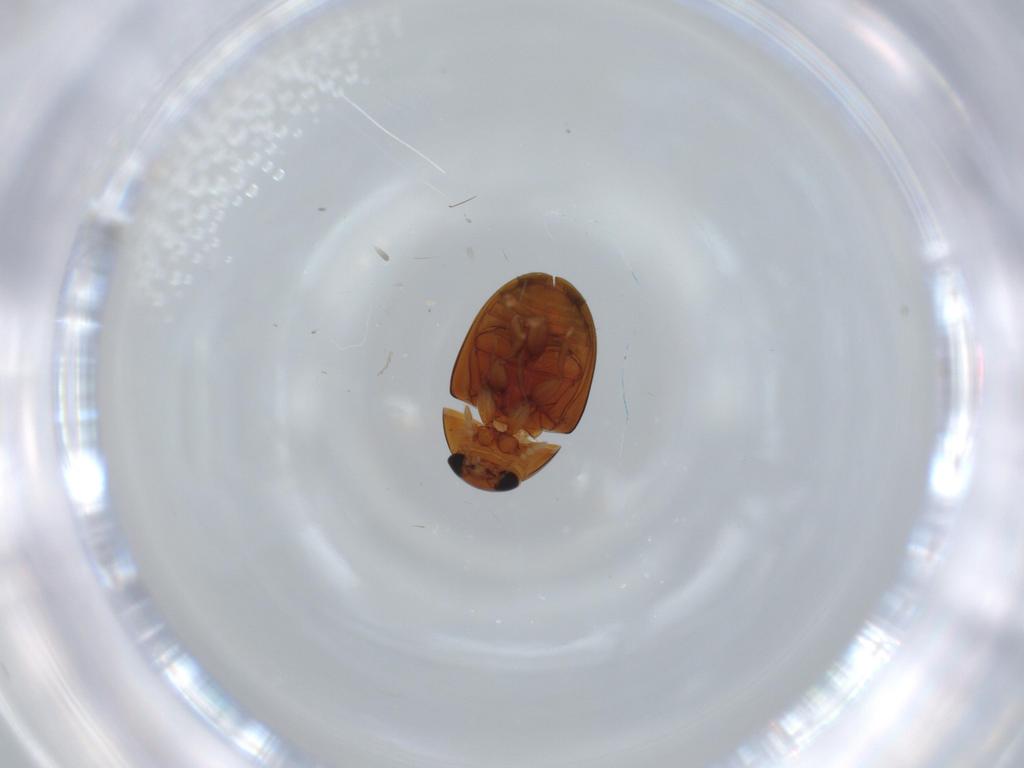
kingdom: Animalia
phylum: Arthropoda
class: Insecta
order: Coleoptera
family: Phalacridae
